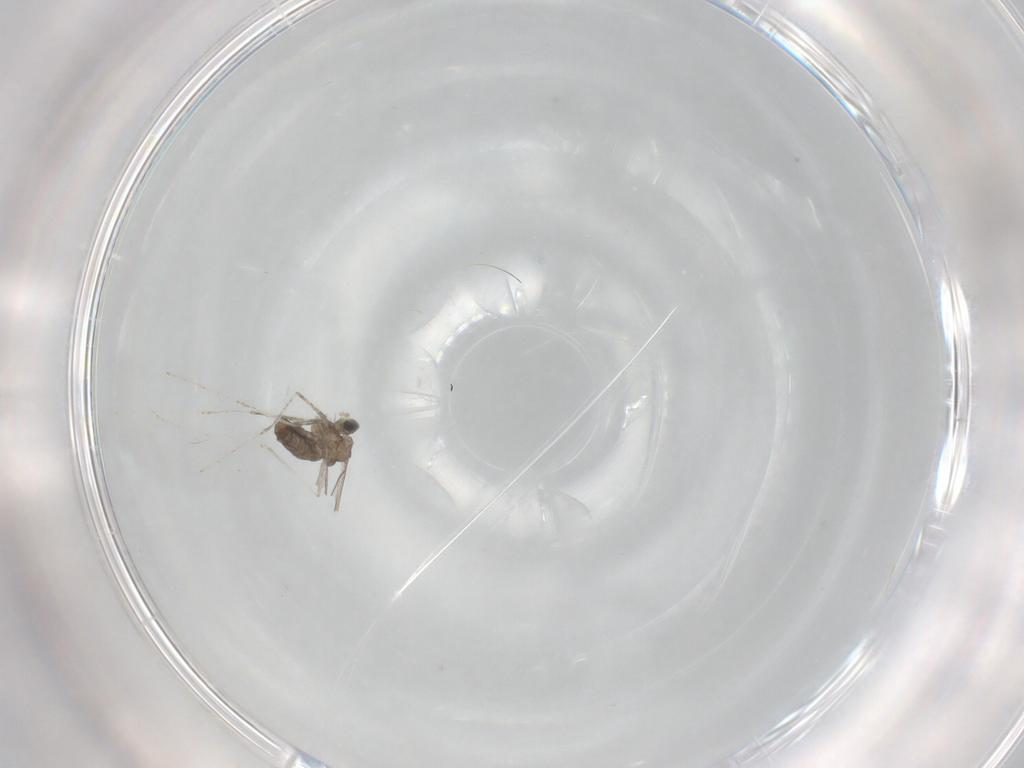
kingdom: Animalia
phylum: Arthropoda
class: Insecta
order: Diptera
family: Cecidomyiidae
